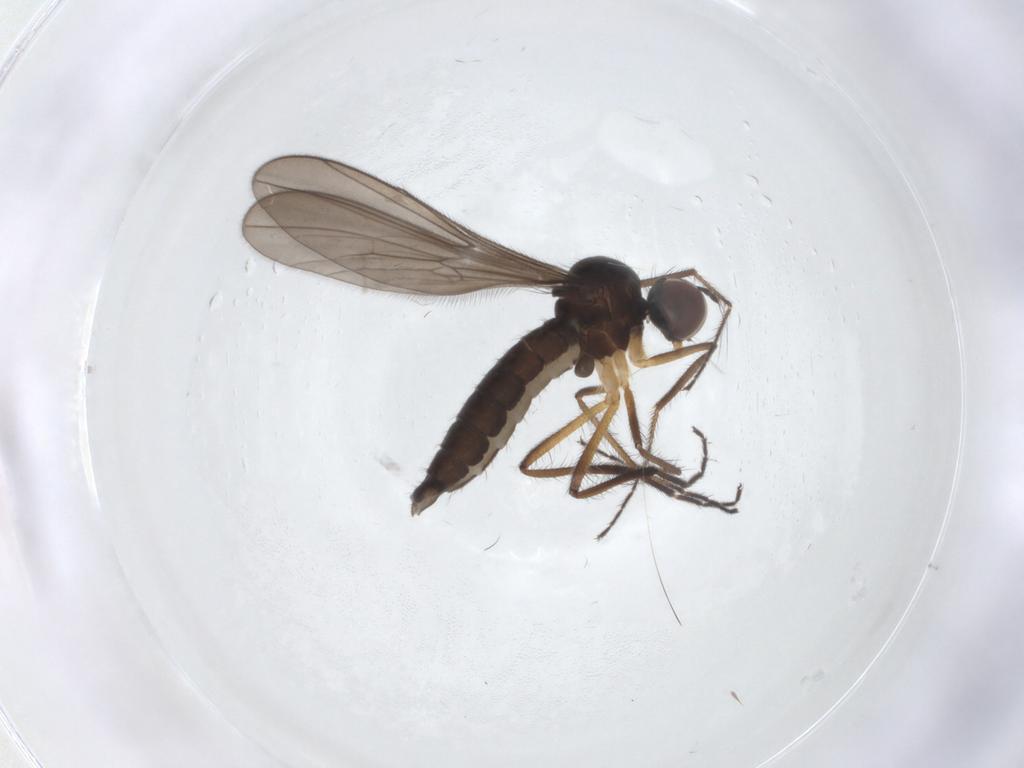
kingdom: Animalia
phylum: Arthropoda
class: Insecta
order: Diptera
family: Hybotidae
